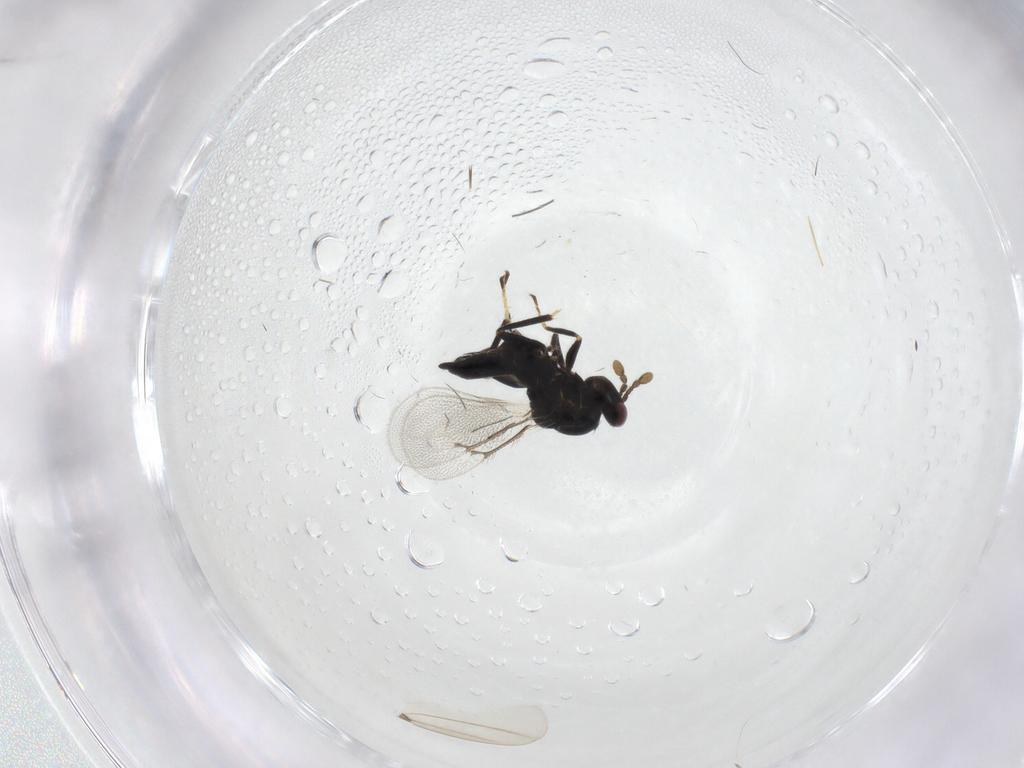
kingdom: Animalia
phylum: Arthropoda
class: Insecta
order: Hymenoptera
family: Eulophidae
